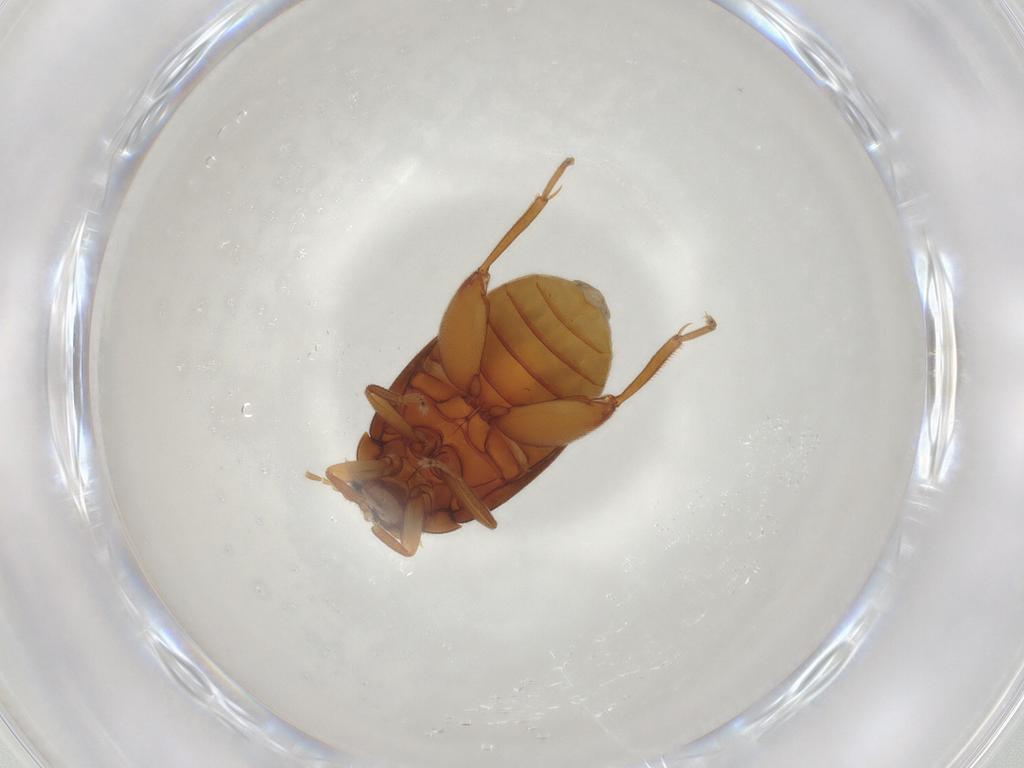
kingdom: Animalia
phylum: Arthropoda
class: Insecta
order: Coleoptera
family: Scirtidae
